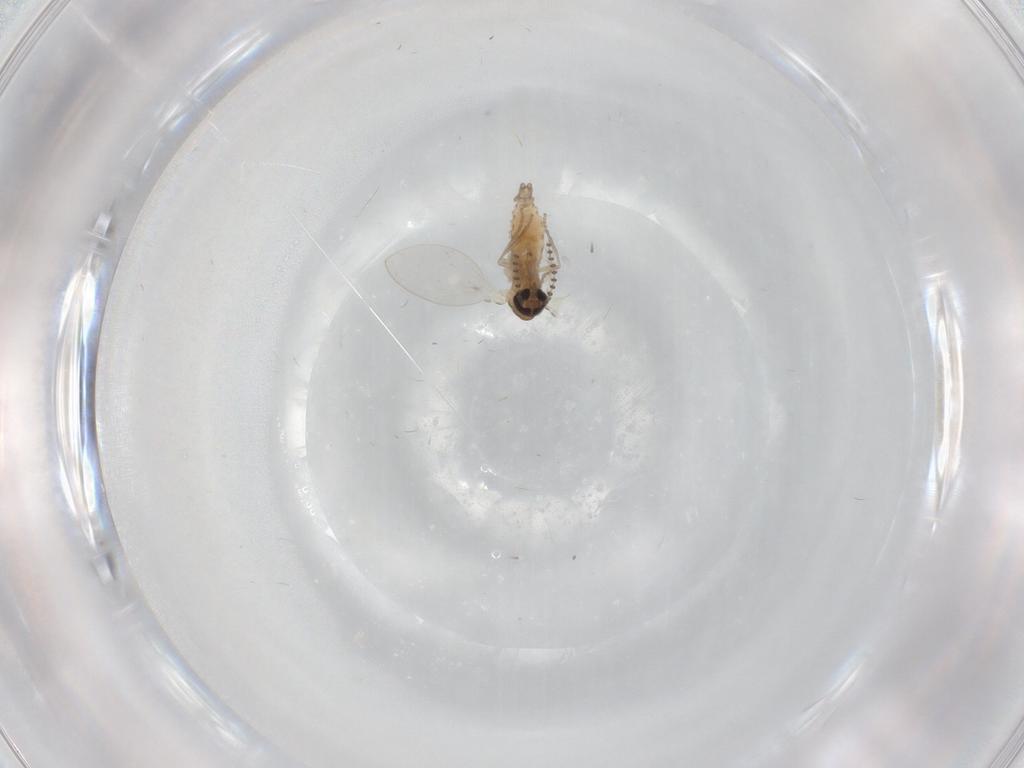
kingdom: Animalia
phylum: Arthropoda
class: Insecta
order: Diptera
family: Psychodidae
